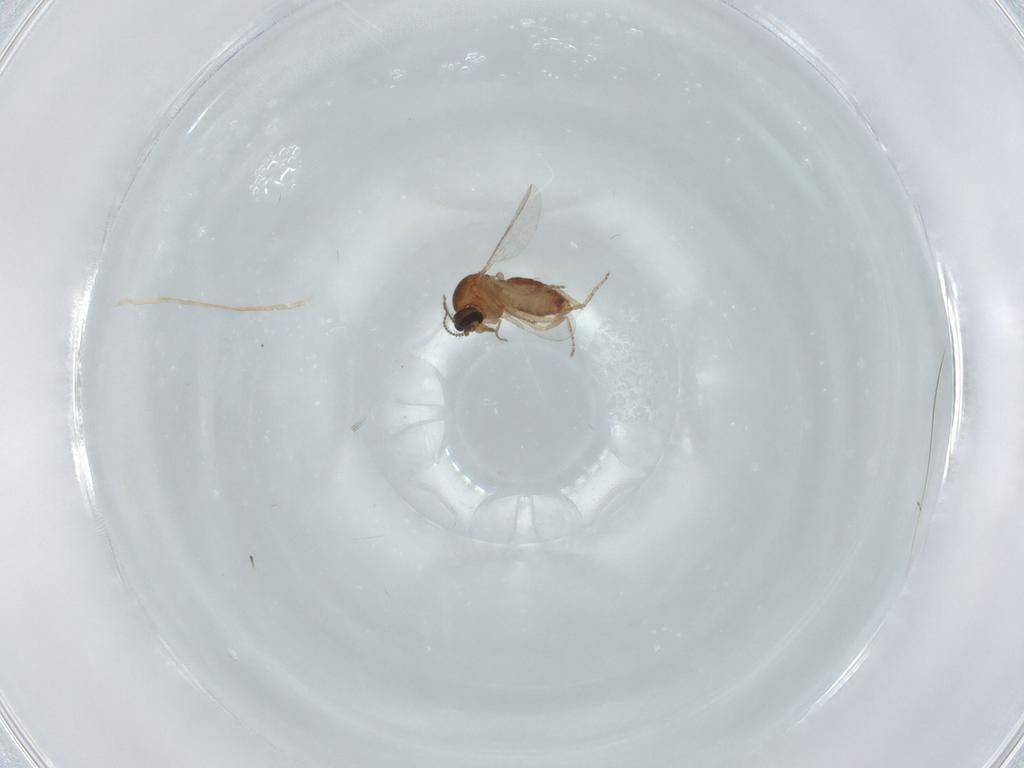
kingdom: Animalia
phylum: Arthropoda
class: Insecta
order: Diptera
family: Ceratopogonidae
